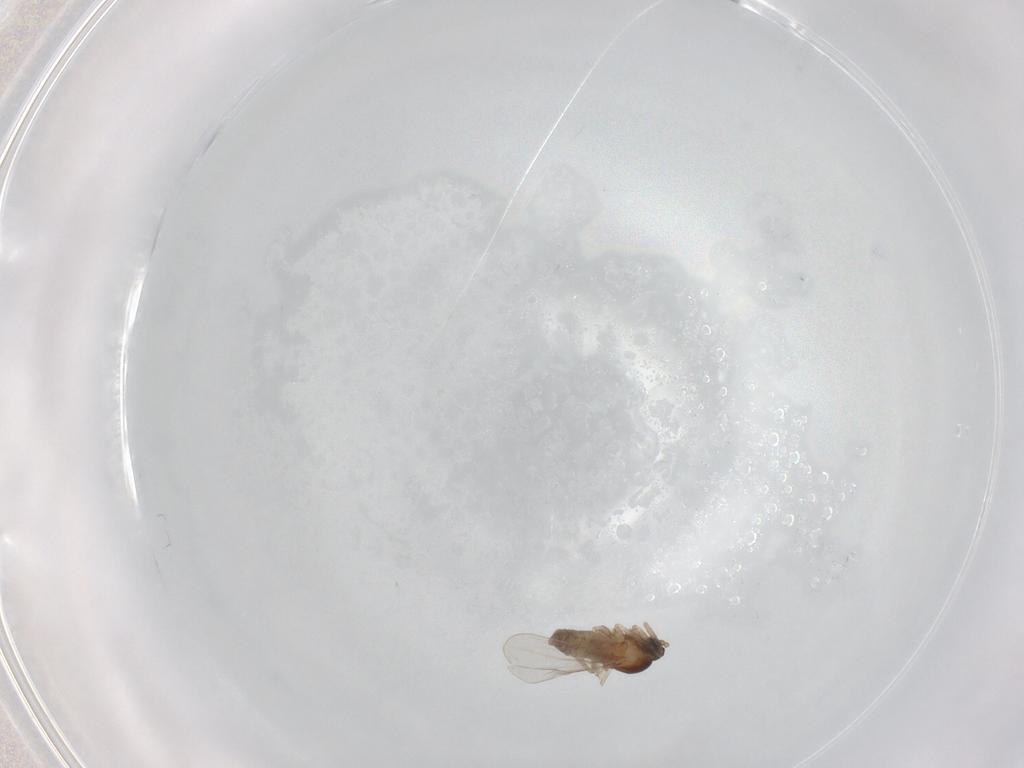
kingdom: Animalia
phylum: Arthropoda
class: Insecta
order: Diptera
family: Cecidomyiidae
